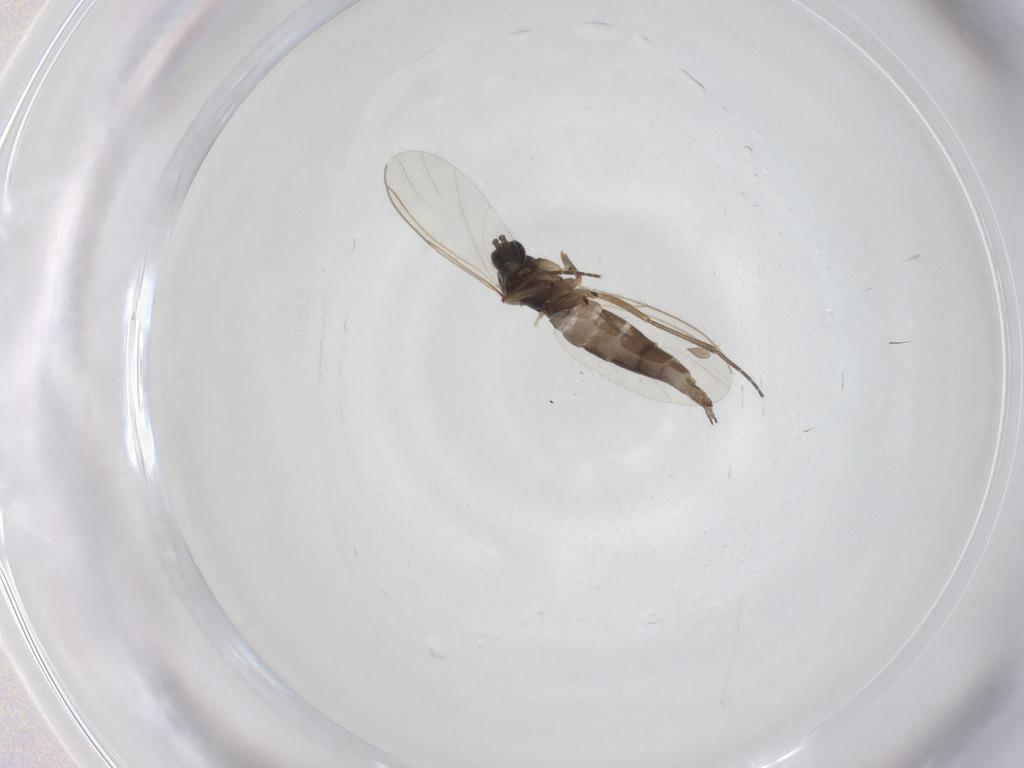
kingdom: Animalia
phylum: Arthropoda
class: Insecta
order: Diptera
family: Sciaridae
